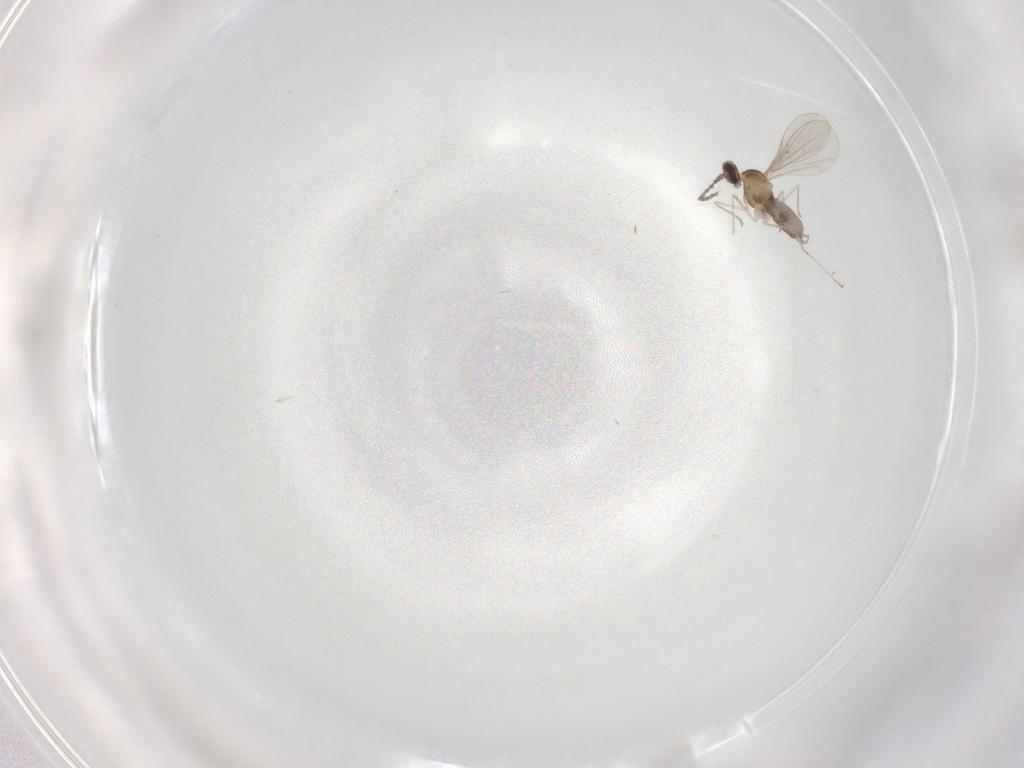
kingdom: Animalia
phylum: Arthropoda
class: Insecta
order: Diptera
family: Cecidomyiidae
